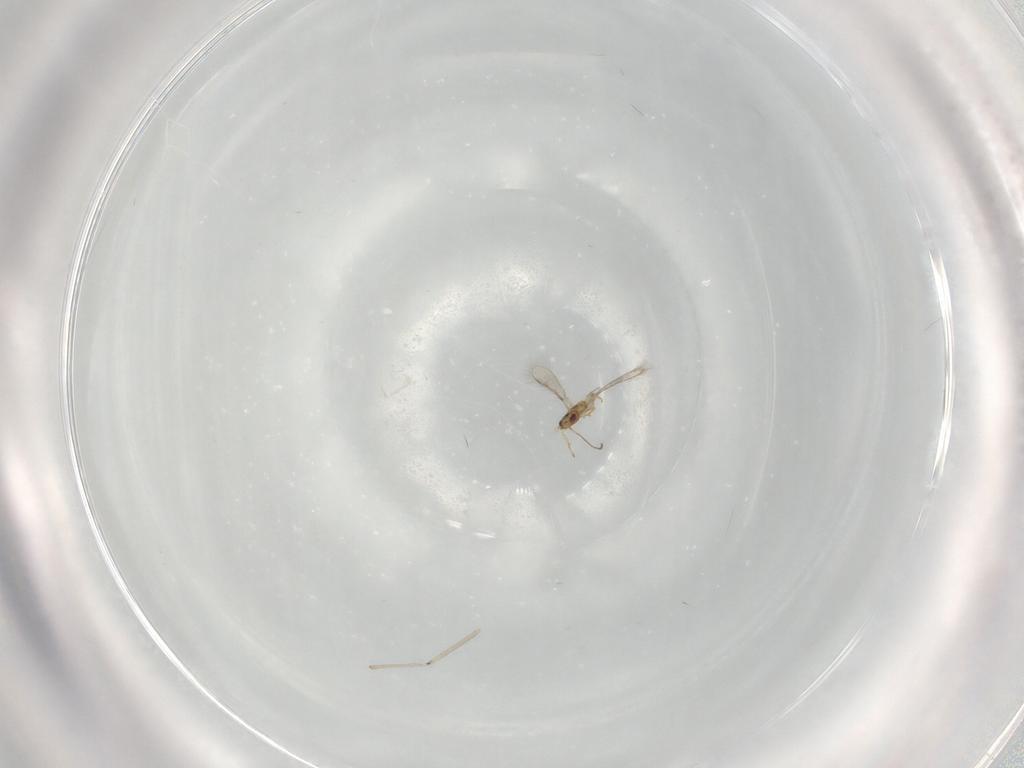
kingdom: Animalia
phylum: Arthropoda
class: Insecta
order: Diptera
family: Cecidomyiidae
